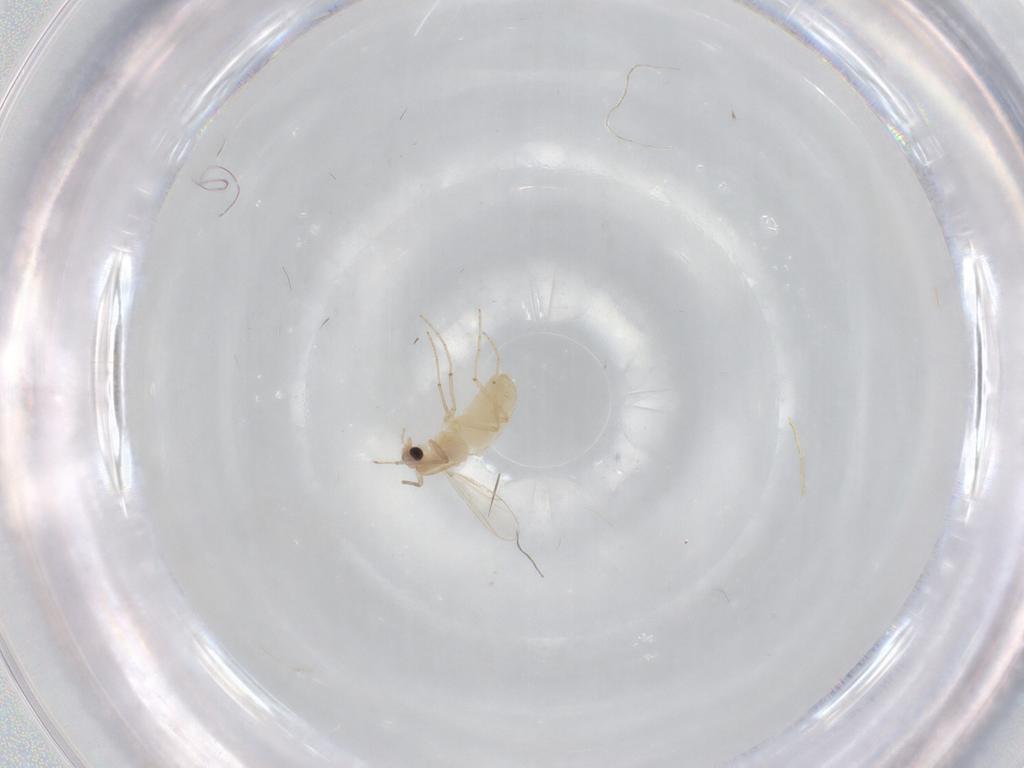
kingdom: Animalia
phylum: Arthropoda
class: Insecta
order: Diptera
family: Chironomidae
